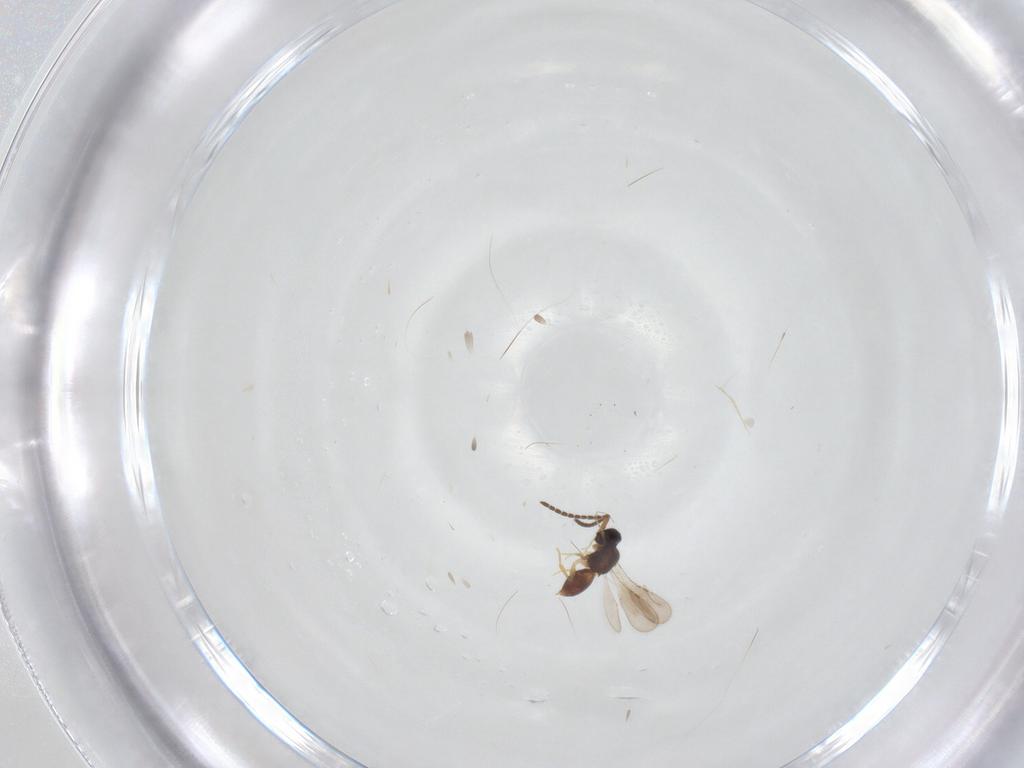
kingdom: Animalia
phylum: Arthropoda
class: Insecta
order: Hymenoptera
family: Ceraphronidae
